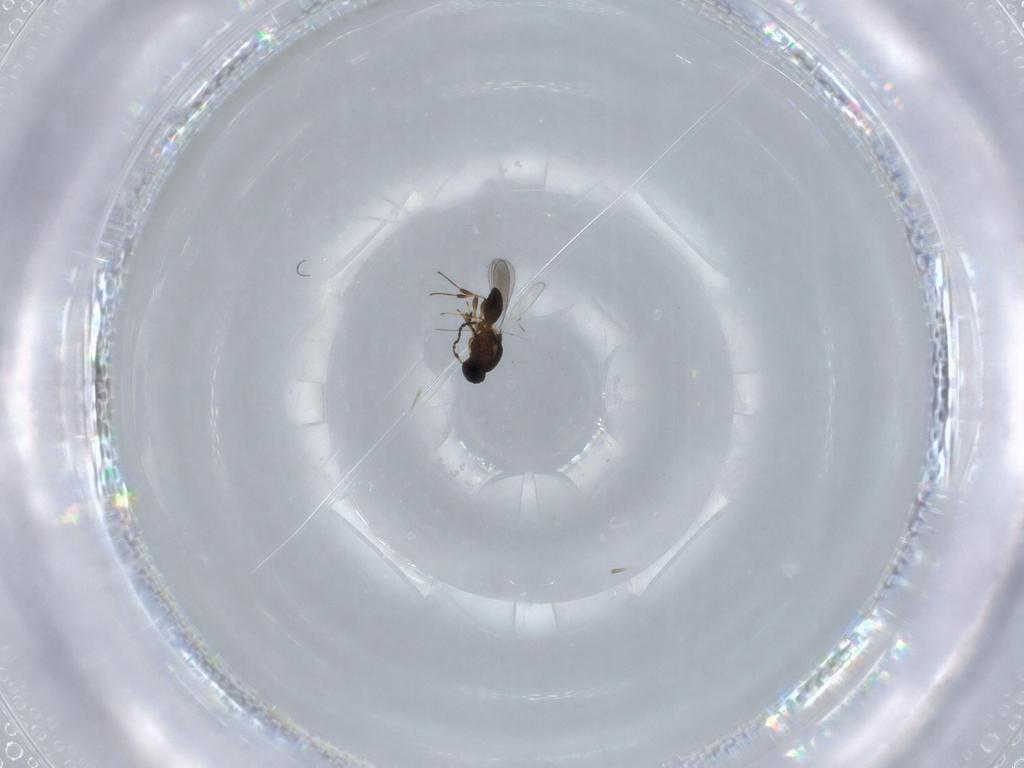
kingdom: Animalia
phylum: Arthropoda
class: Insecta
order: Hymenoptera
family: Platygastridae
